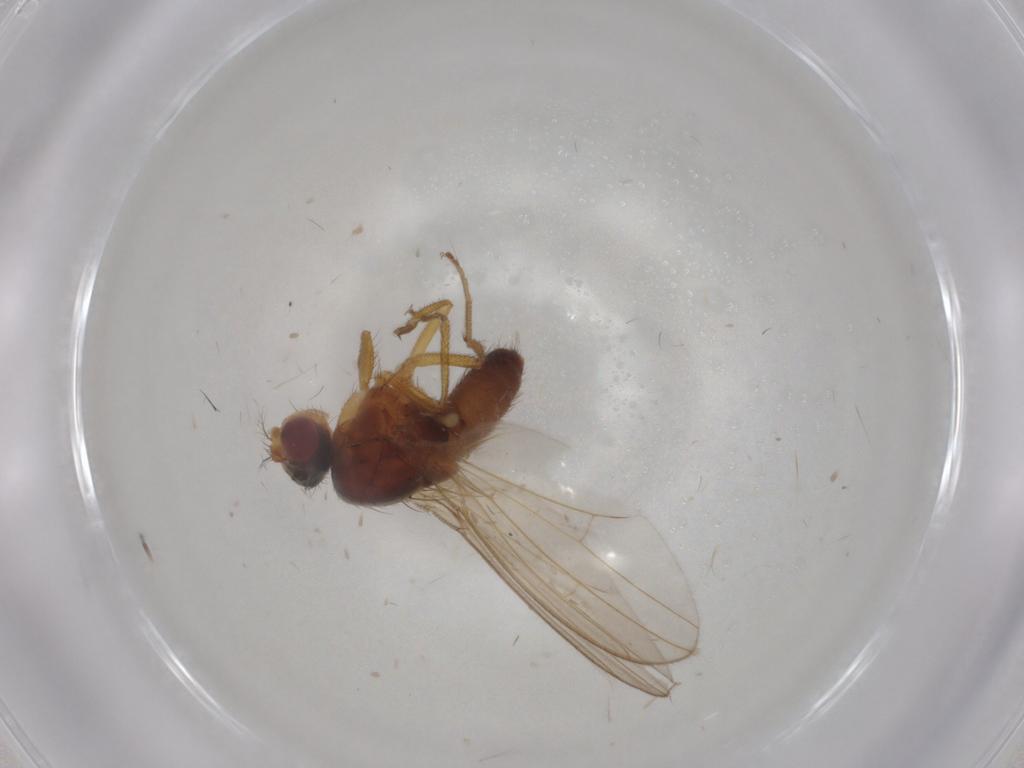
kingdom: Animalia
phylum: Arthropoda
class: Insecta
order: Diptera
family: Drosophilidae
